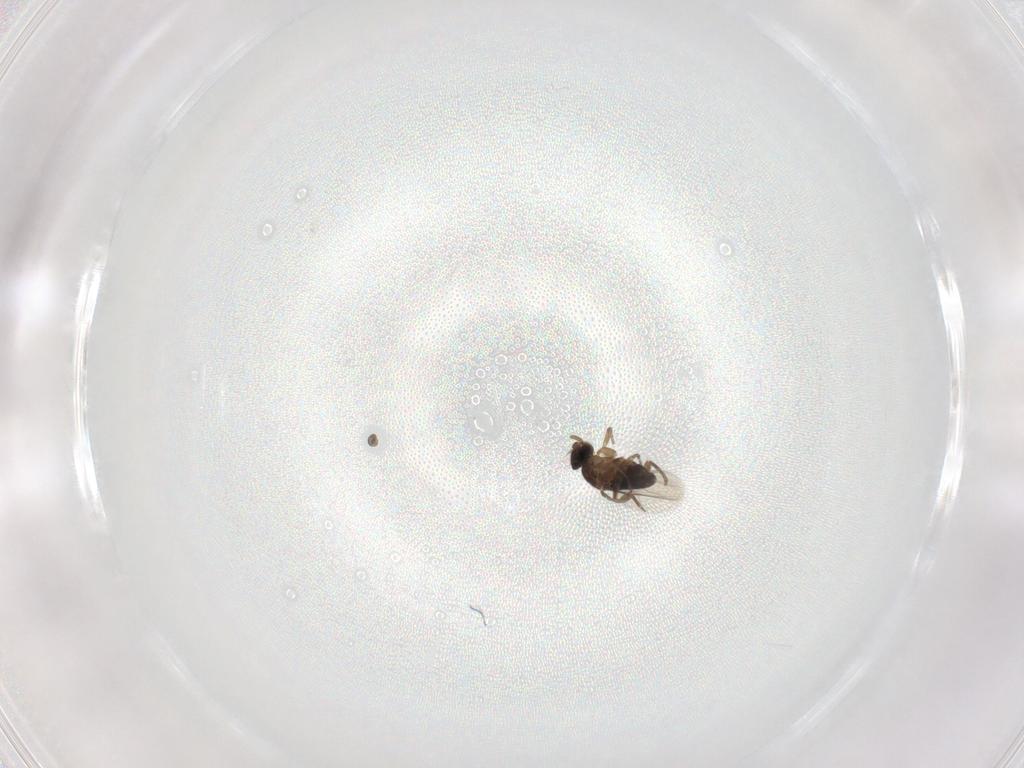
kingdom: Animalia
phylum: Arthropoda
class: Insecta
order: Diptera
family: Phoridae
